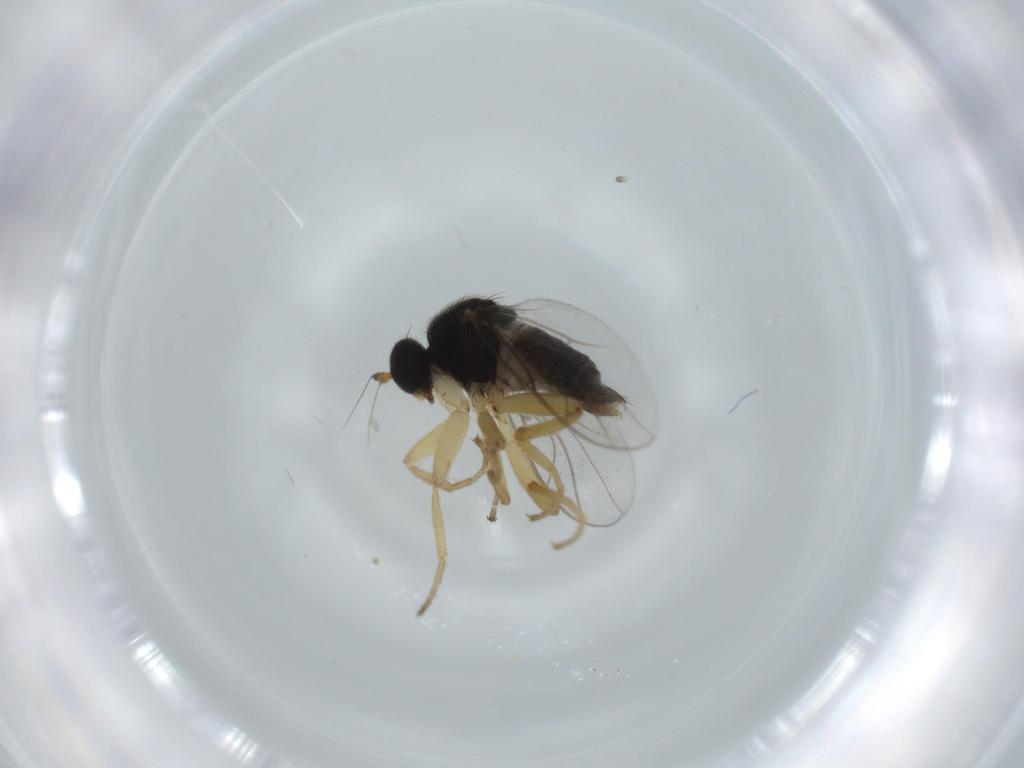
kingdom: Animalia
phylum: Arthropoda
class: Insecta
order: Diptera
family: Hybotidae
